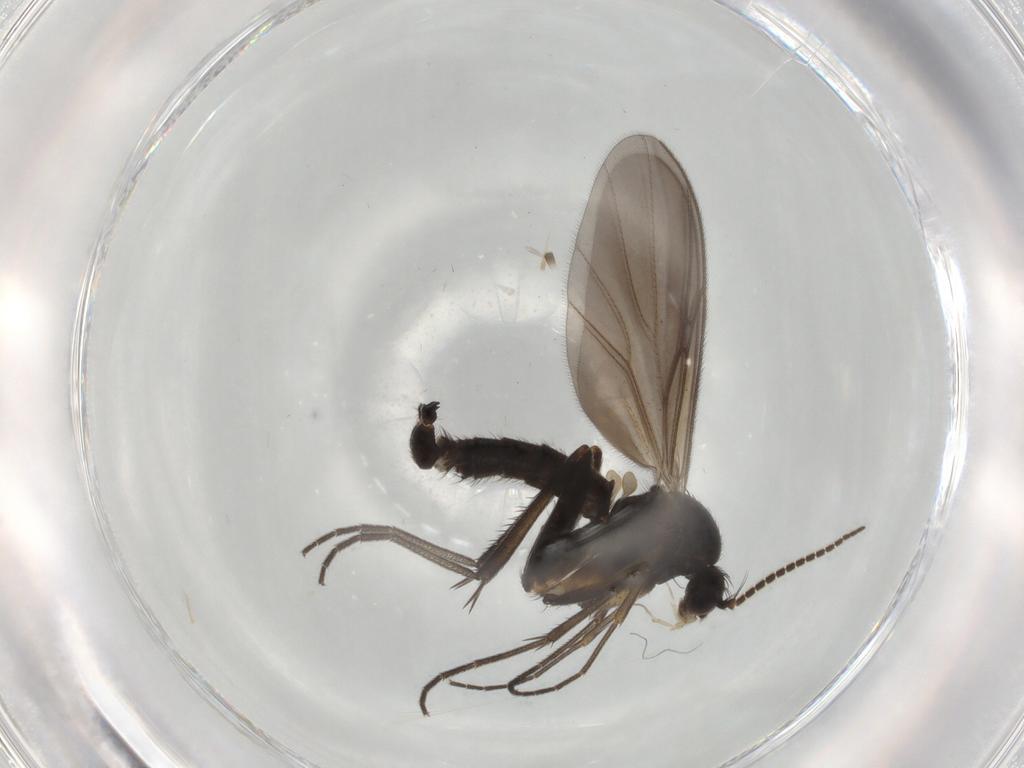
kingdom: Animalia
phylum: Arthropoda
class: Insecta
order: Diptera
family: Mycetophilidae
